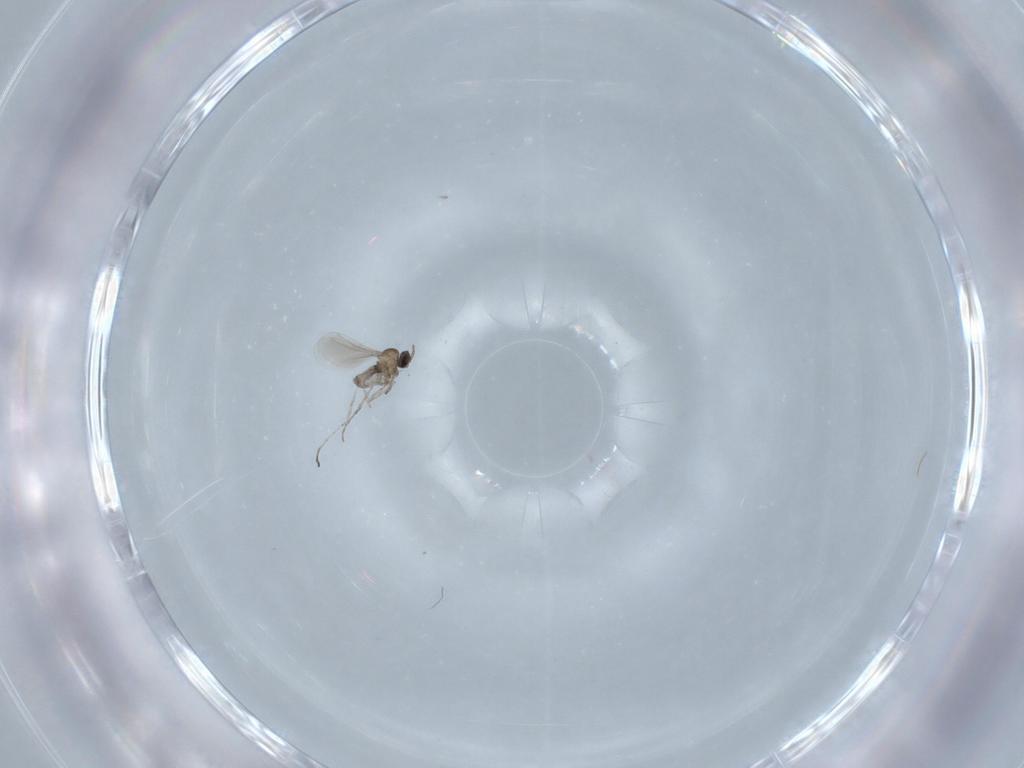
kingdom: Animalia
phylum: Arthropoda
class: Insecta
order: Diptera
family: Cecidomyiidae
